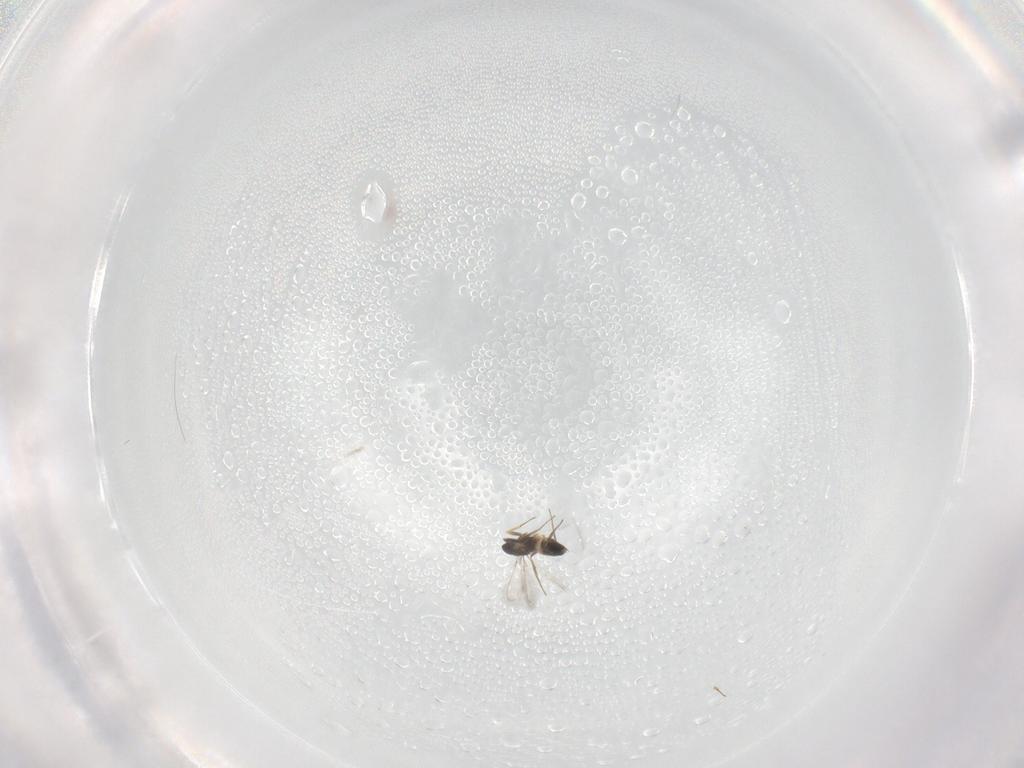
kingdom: Animalia
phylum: Arthropoda
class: Insecta
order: Hymenoptera
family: Mymaridae
